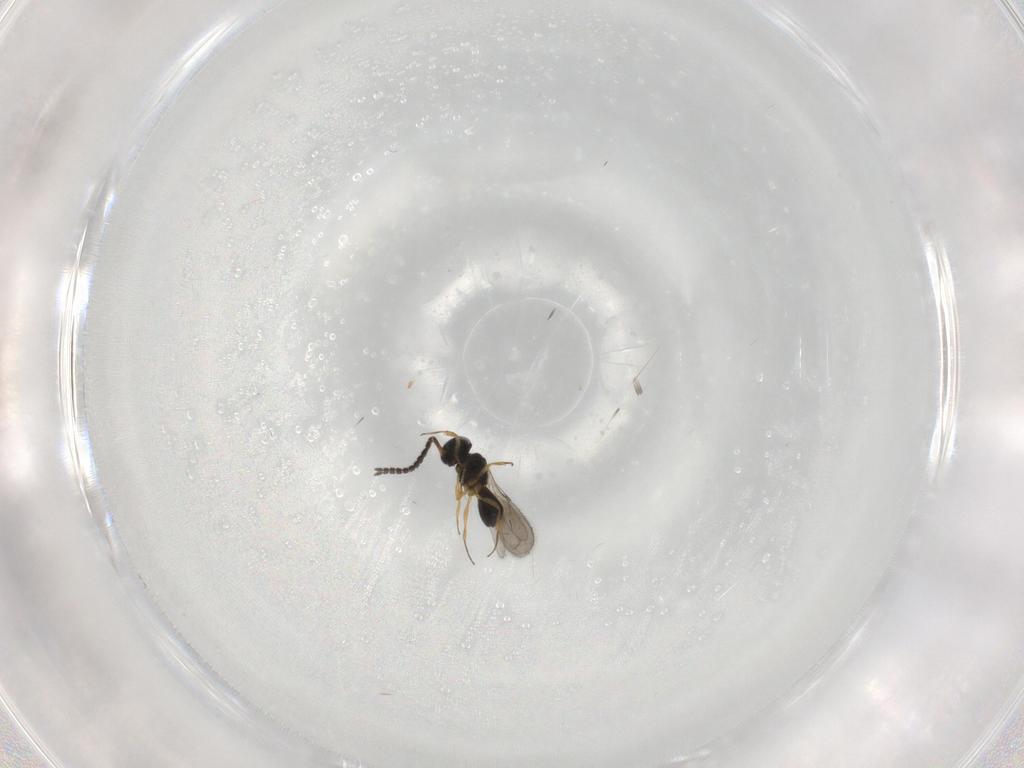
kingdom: Animalia
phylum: Arthropoda
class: Insecta
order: Hymenoptera
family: Scelionidae
